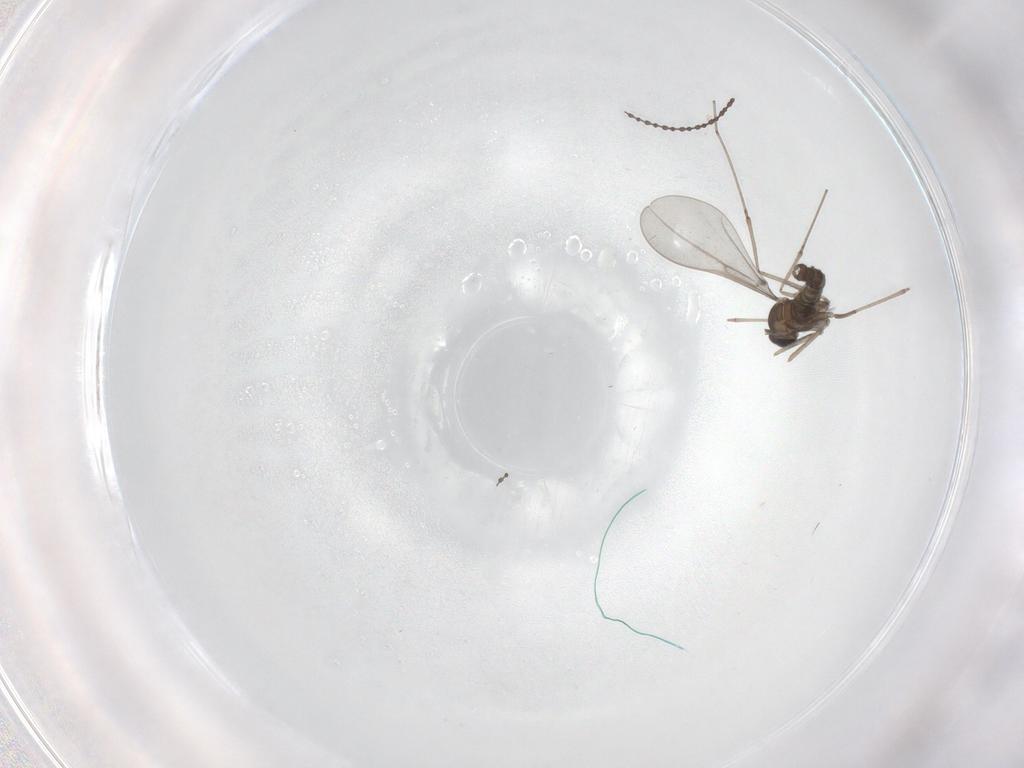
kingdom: Animalia
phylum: Arthropoda
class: Insecta
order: Diptera
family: Cecidomyiidae
